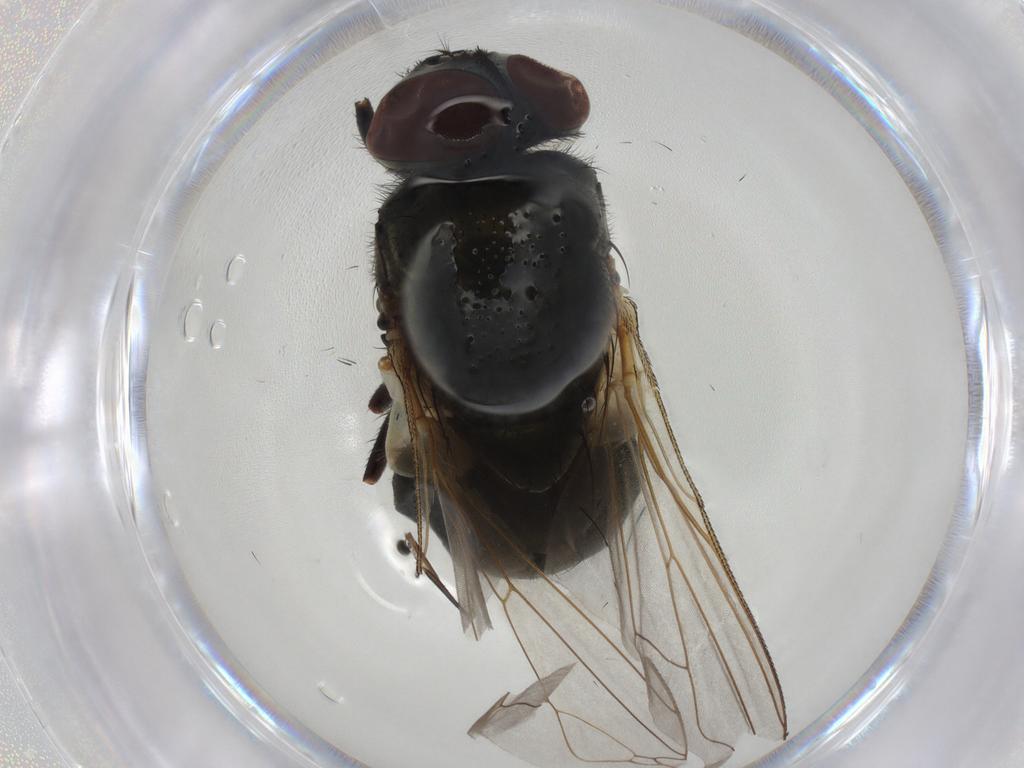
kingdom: Animalia
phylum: Arthropoda
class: Insecta
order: Diptera
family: Muscidae
